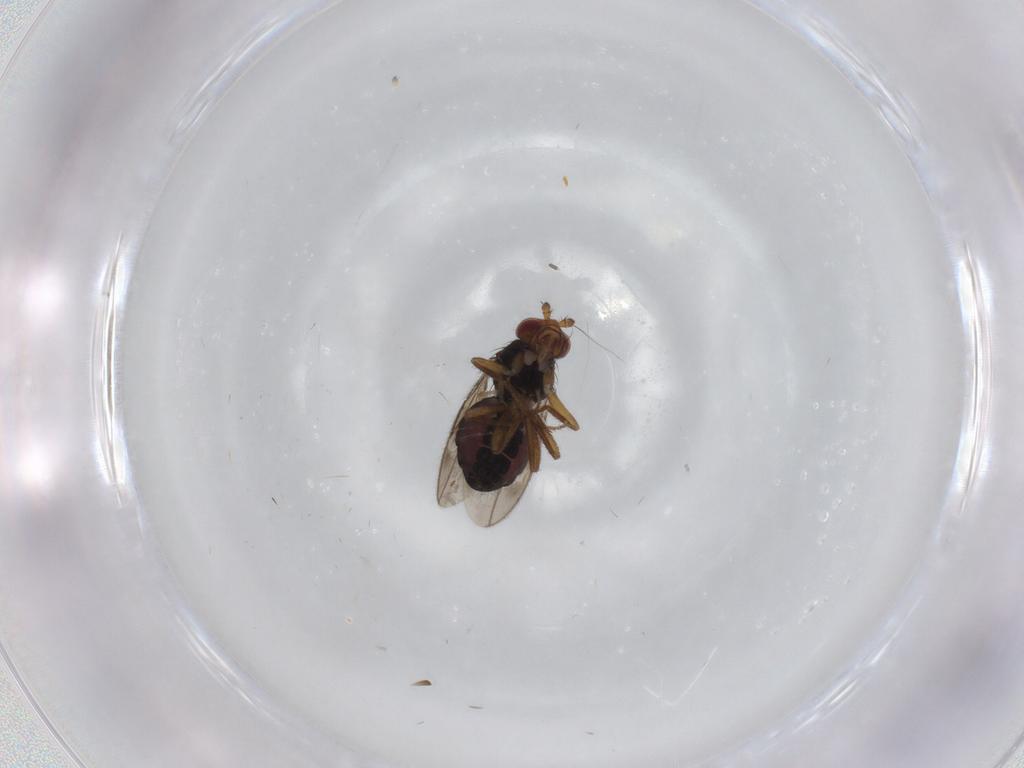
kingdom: Animalia
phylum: Arthropoda
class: Insecta
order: Diptera
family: Sphaeroceridae
